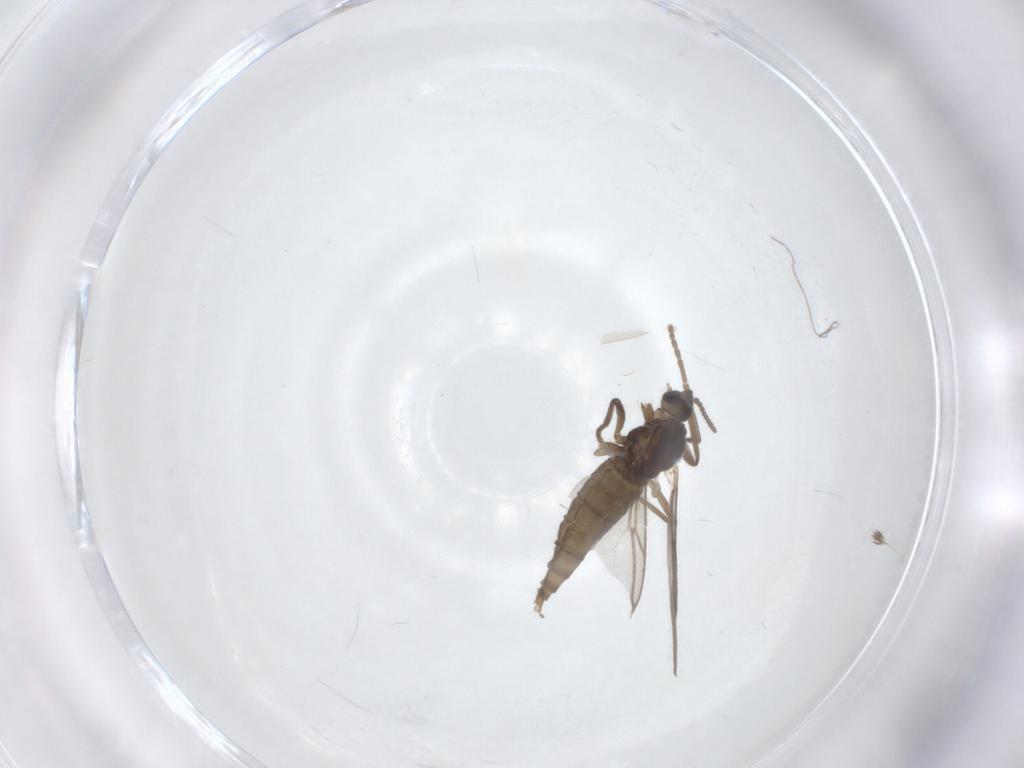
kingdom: Animalia
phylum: Arthropoda
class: Insecta
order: Diptera
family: Cecidomyiidae
